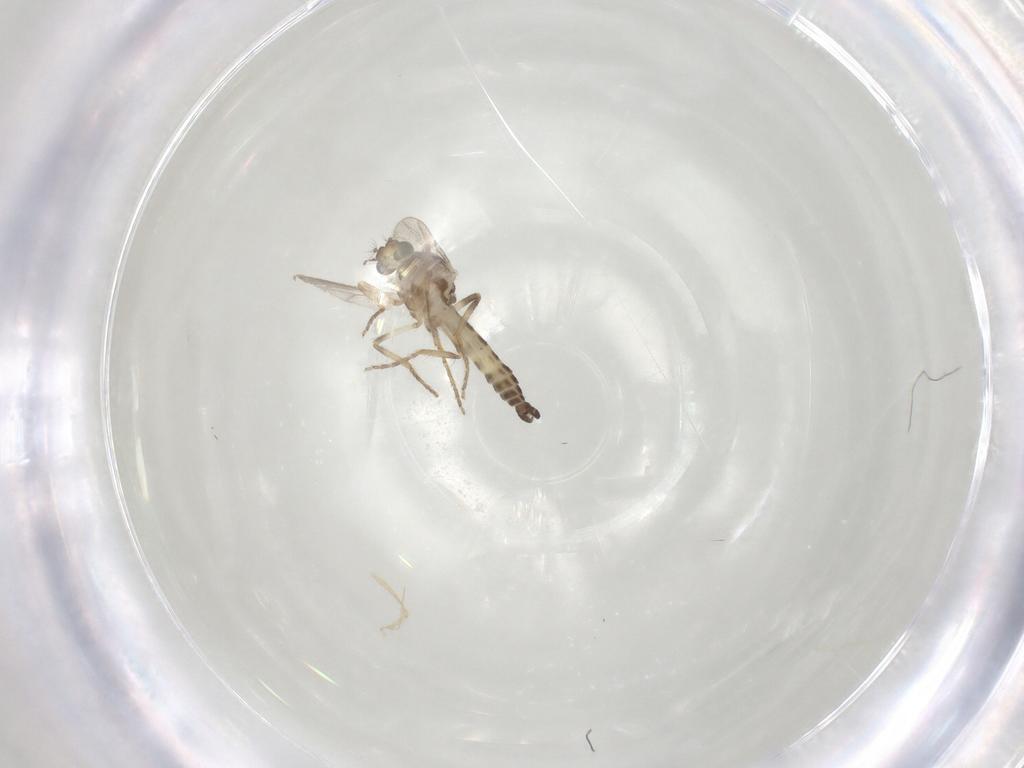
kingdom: Animalia
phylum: Arthropoda
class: Insecta
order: Diptera
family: Ceratopogonidae
